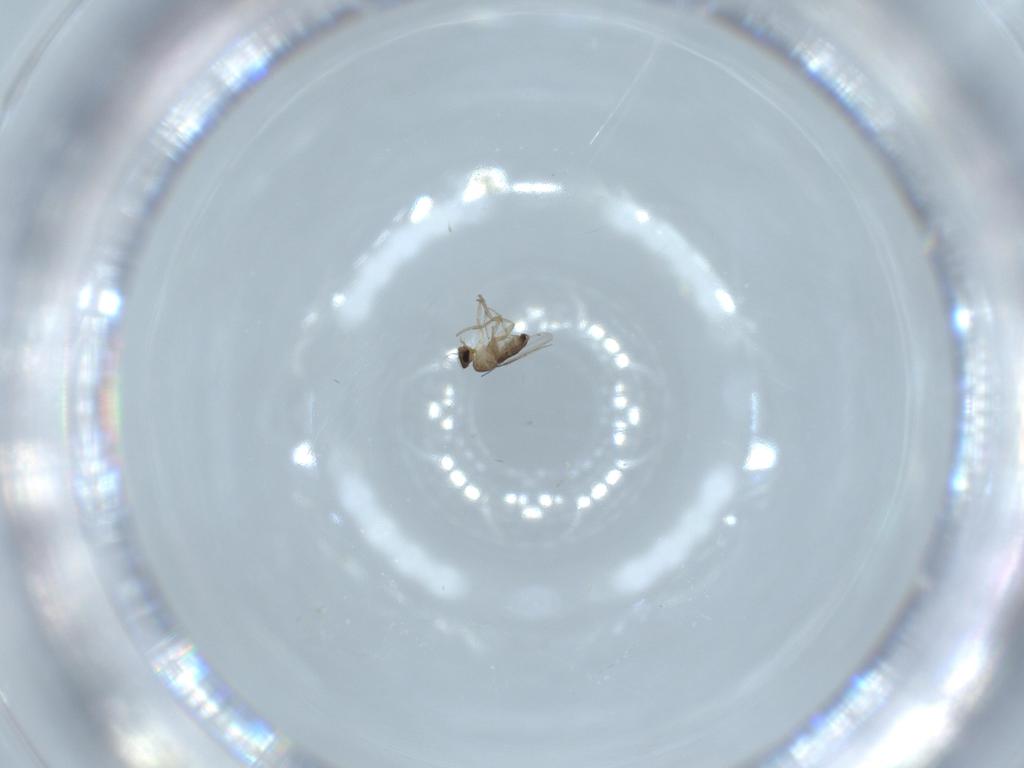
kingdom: Animalia
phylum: Arthropoda
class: Insecta
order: Diptera
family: Phoridae
